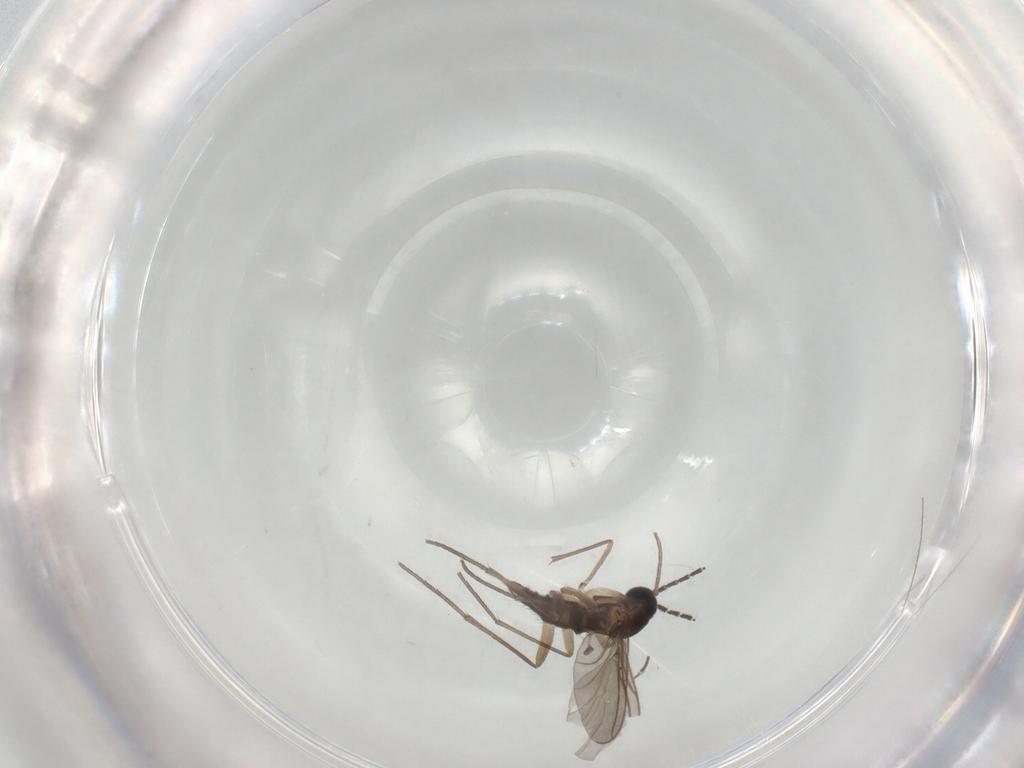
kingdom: Animalia
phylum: Arthropoda
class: Insecta
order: Diptera
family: Sciaridae
